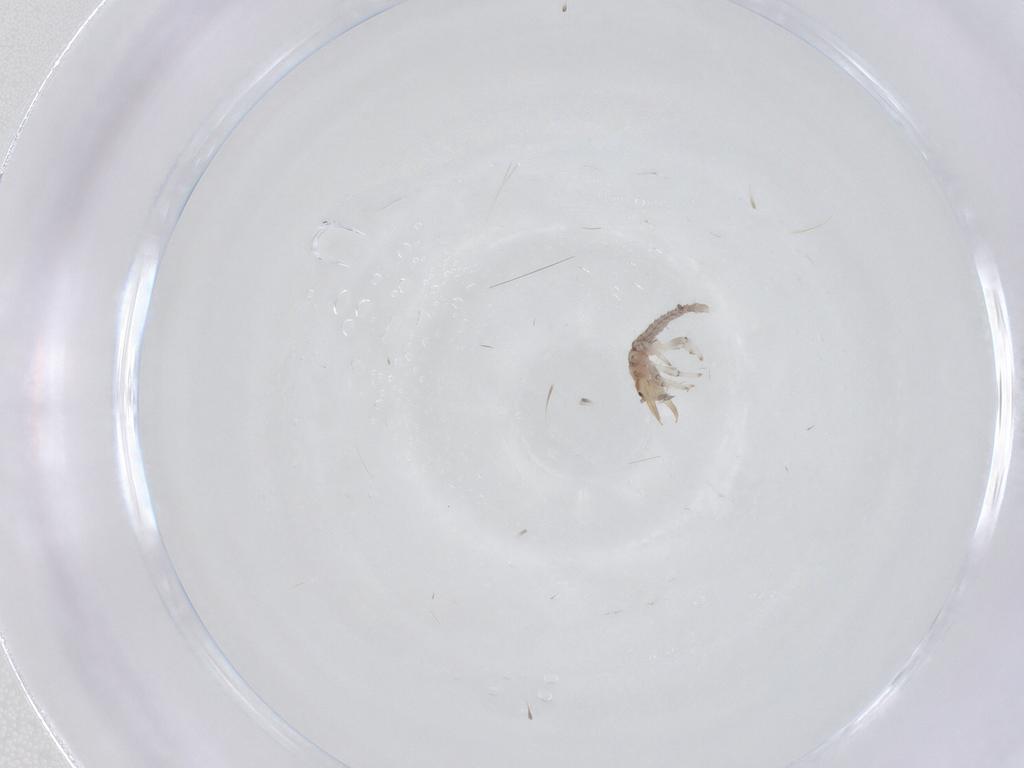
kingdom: Animalia
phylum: Arthropoda
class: Insecta
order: Neuroptera
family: Hemerobiidae
